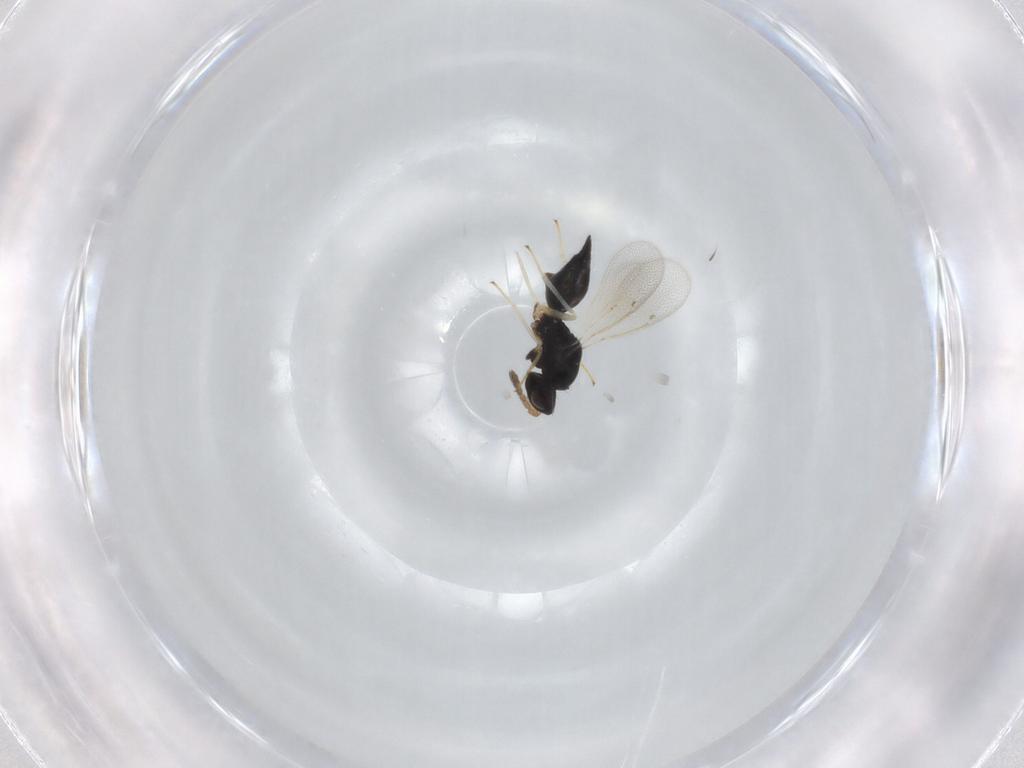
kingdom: Animalia
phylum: Arthropoda
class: Insecta
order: Hymenoptera
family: Eulophidae
